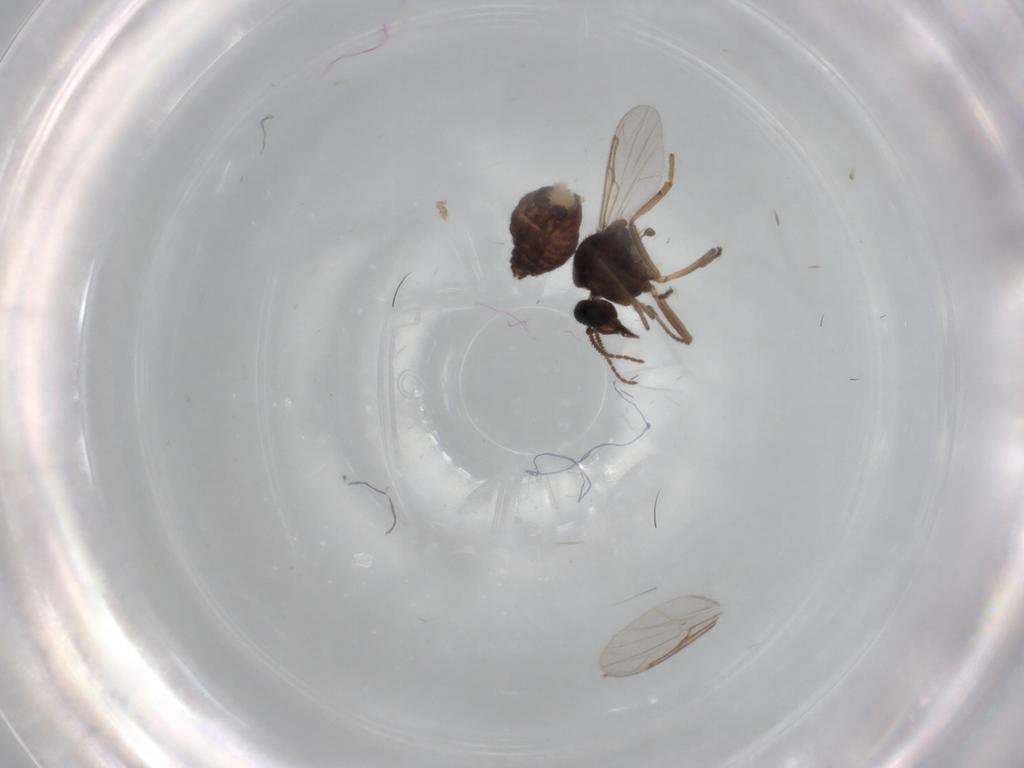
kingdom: Animalia
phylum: Arthropoda
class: Insecta
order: Diptera
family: Ceratopogonidae
